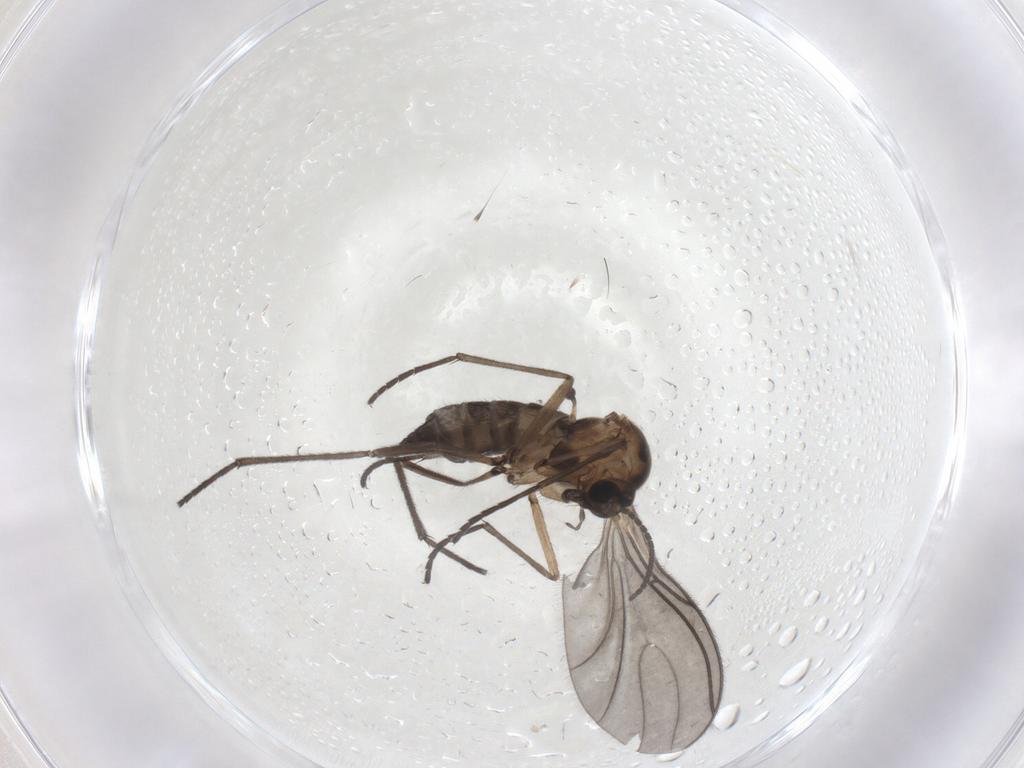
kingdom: Animalia
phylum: Arthropoda
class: Insecta
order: Diptera
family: Sciaridae
